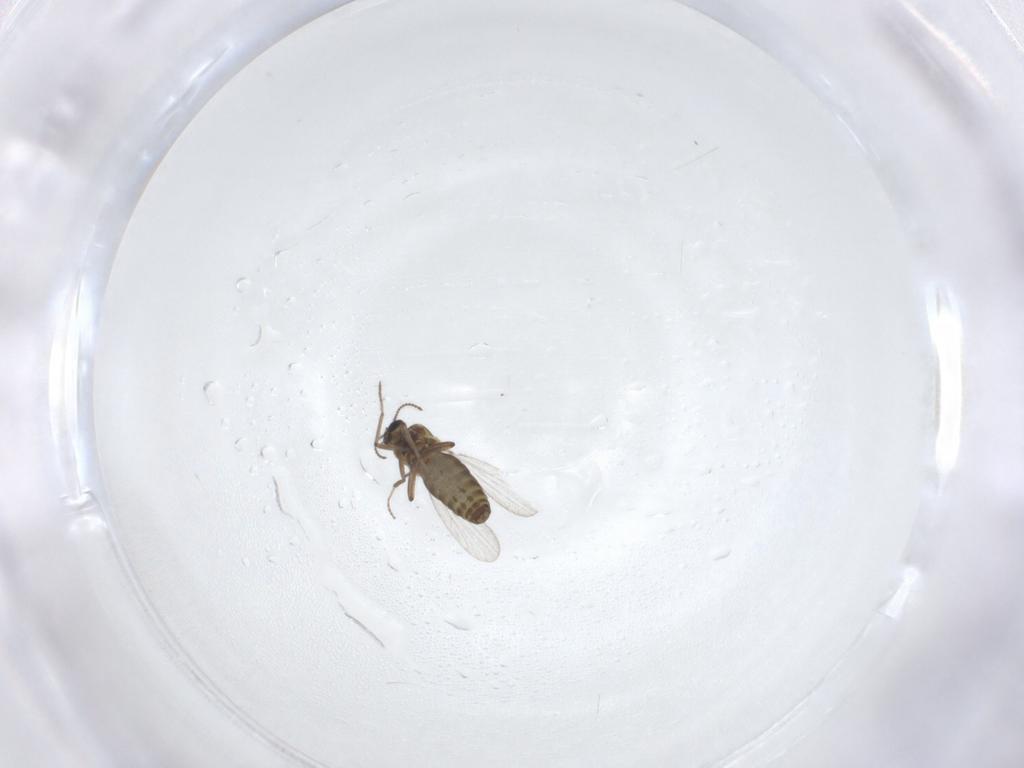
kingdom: Animalia
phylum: Arthropoda
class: Insecta
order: Diptera
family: Ceratopogonidae
